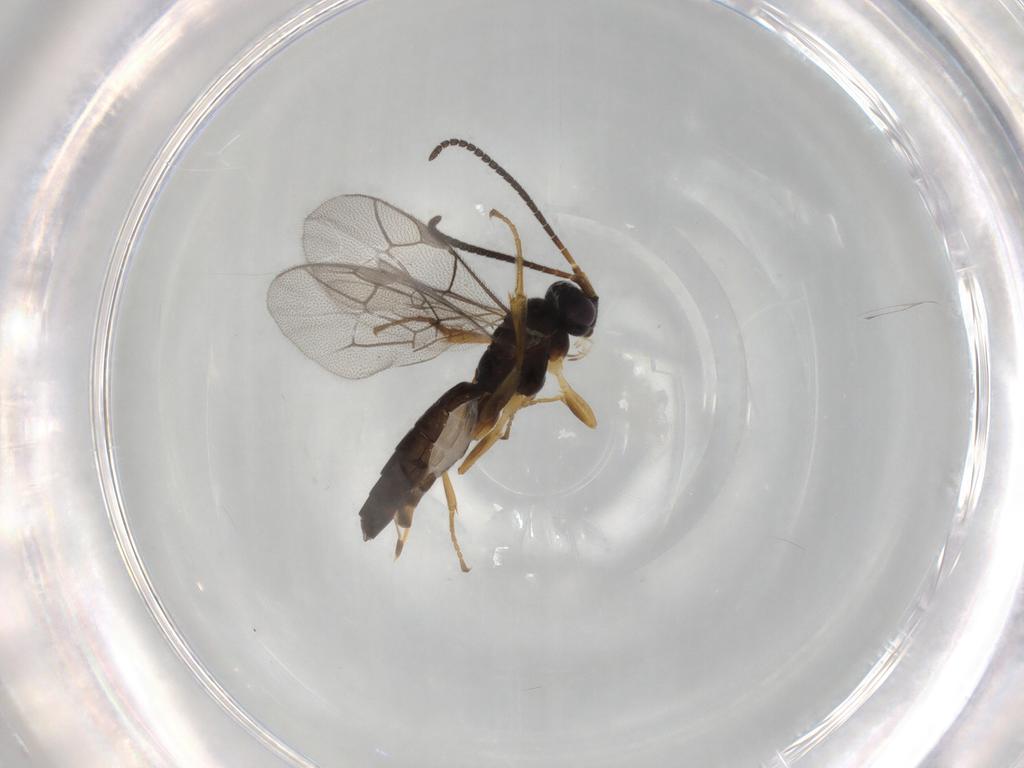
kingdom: Animalia
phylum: Arthropoda
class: Insecta
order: Hymenoptera
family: Ichneumonidae
